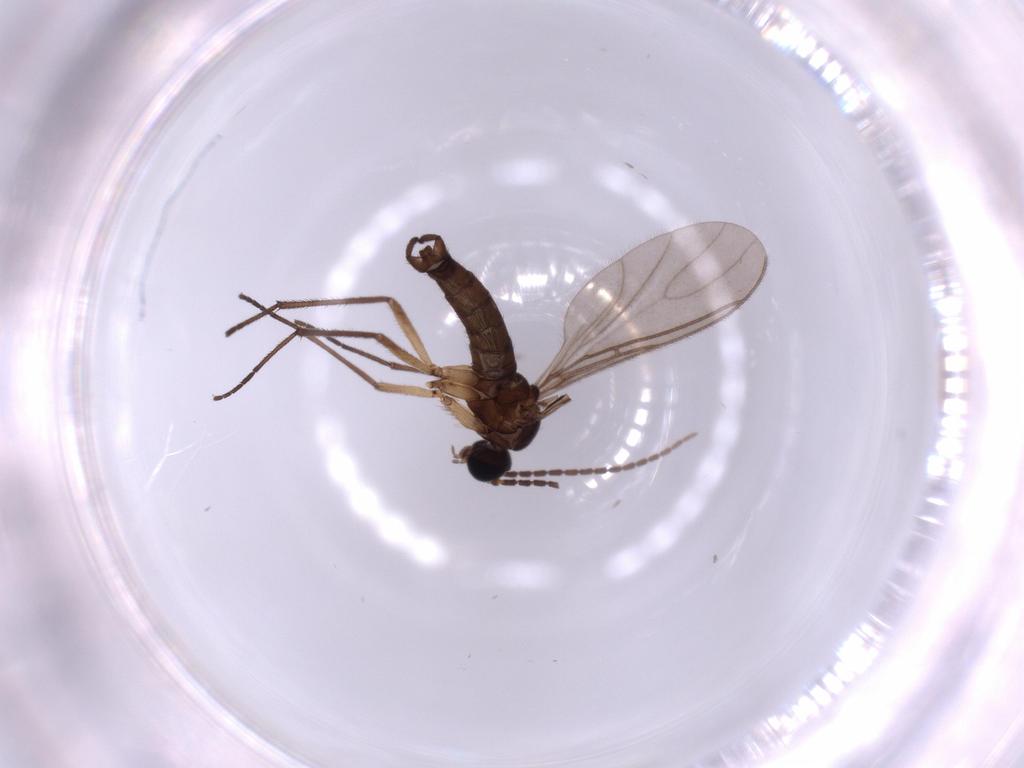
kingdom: Animalia
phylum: Arthropoda
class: Insecta
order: Diptera
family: Sciaridae
